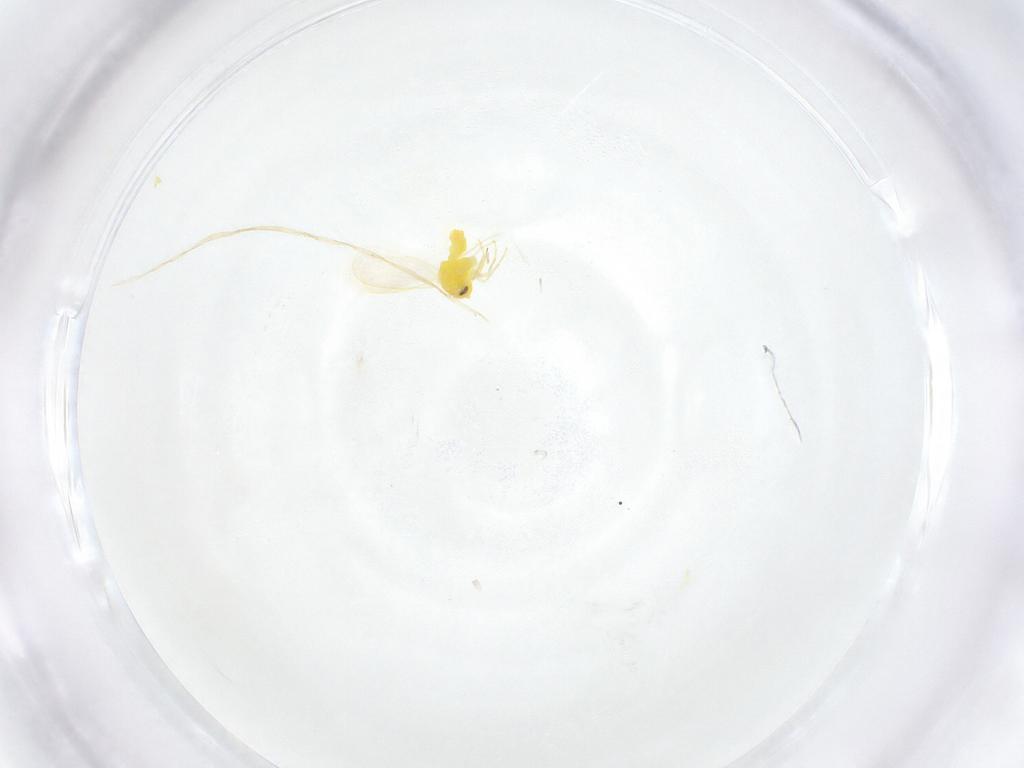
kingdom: Animalia
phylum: Arthropoda
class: Insecta
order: Hemiptera
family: Aleyrodidae
